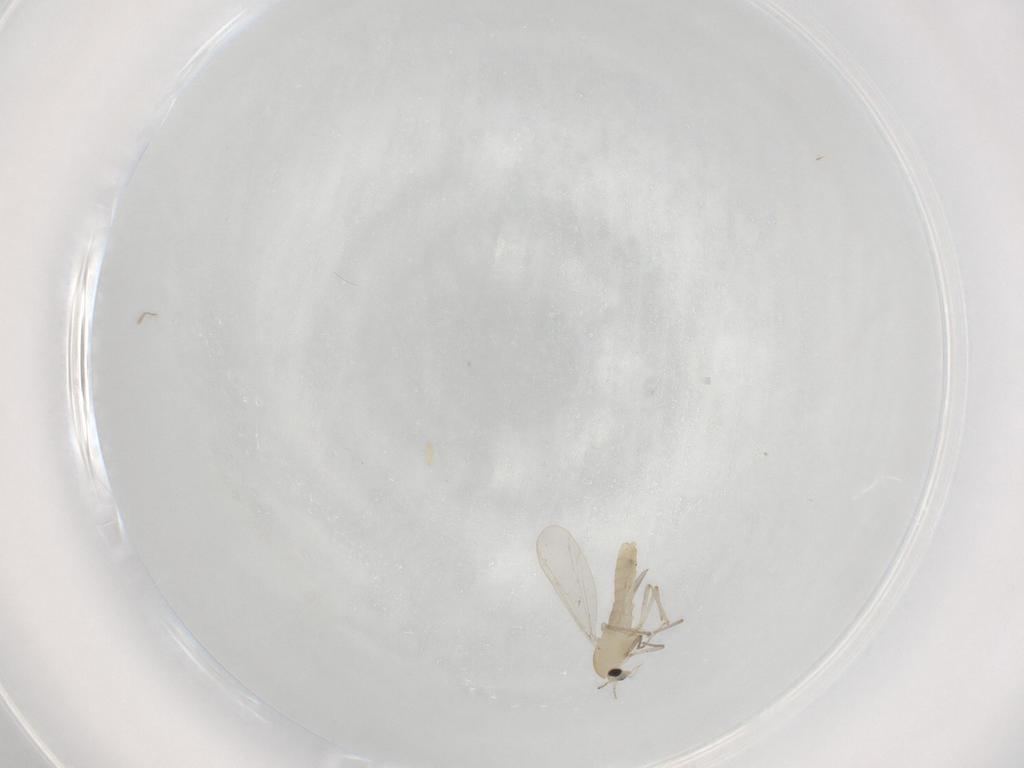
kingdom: Animalia
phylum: Arthropoda
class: Insecta
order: Diptera
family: Chironomidae
